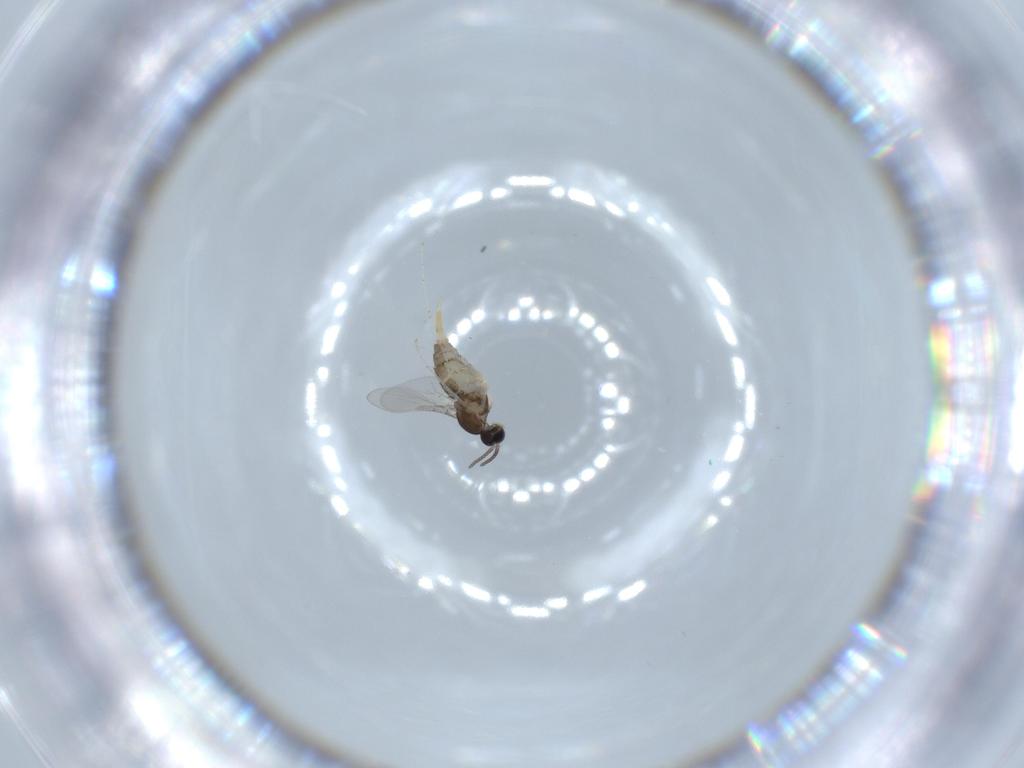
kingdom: Animalia
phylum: Arthropoda
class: Insecta
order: Diptera
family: Cecidomyiidae
